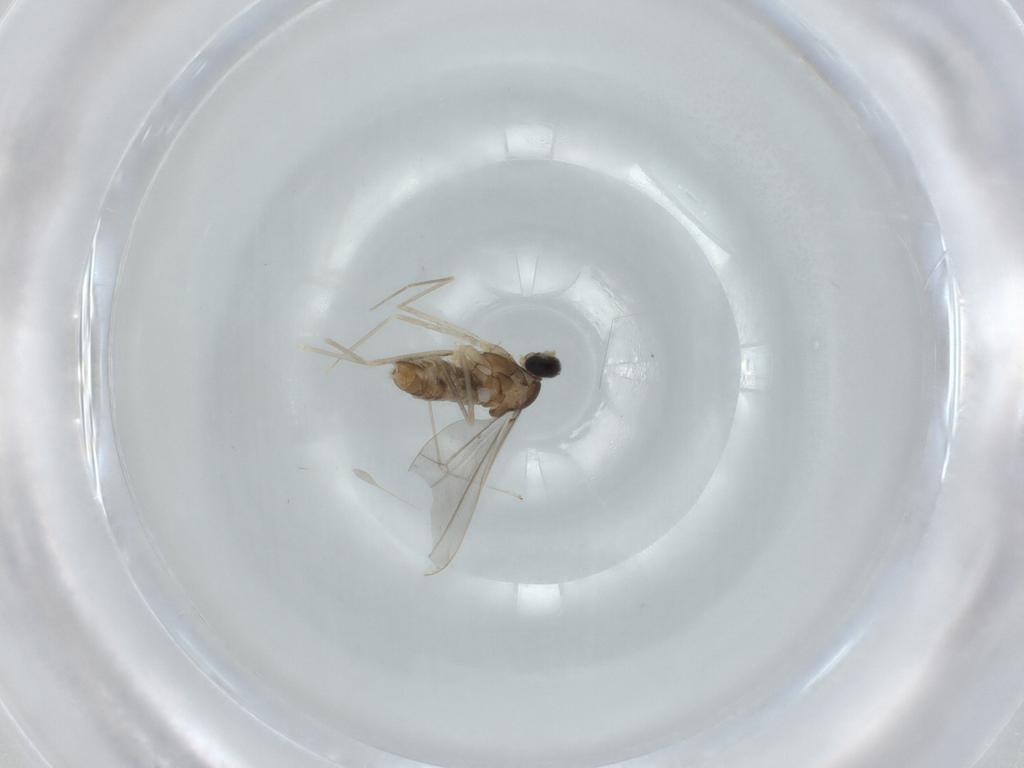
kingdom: Animalia
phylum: Arthropoda
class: Insecta
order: Diptera
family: Cecidomyiidae
